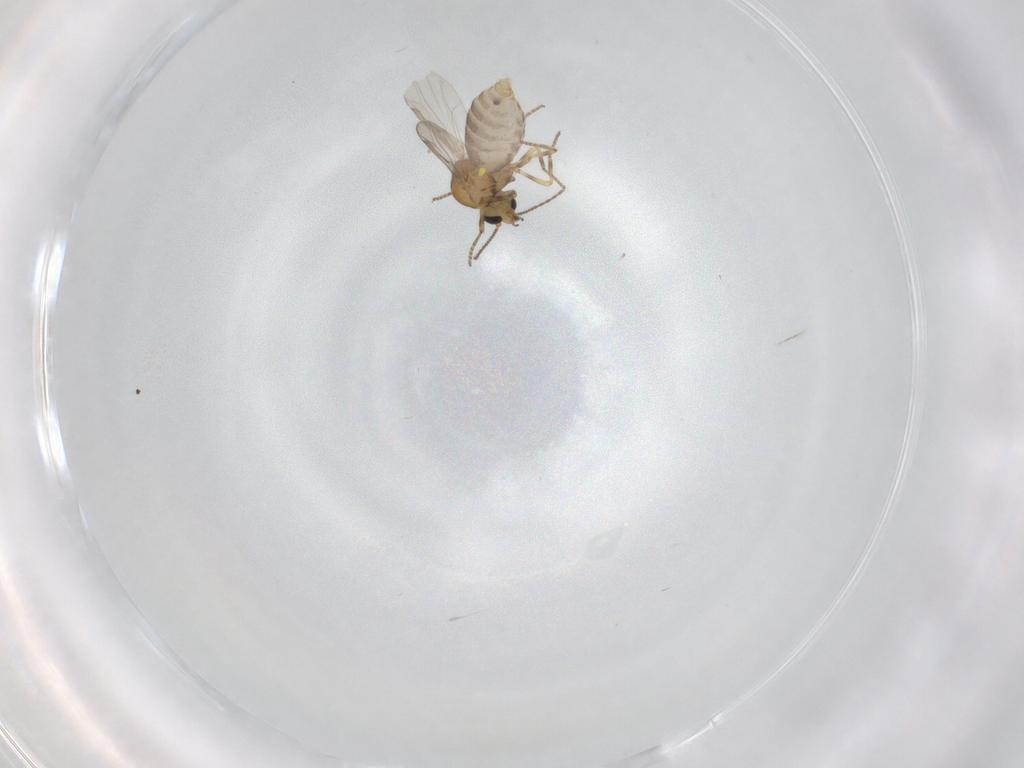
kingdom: Animalia
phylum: Arthropoda
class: Insecta
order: Diptera
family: Ceratopogonidae
